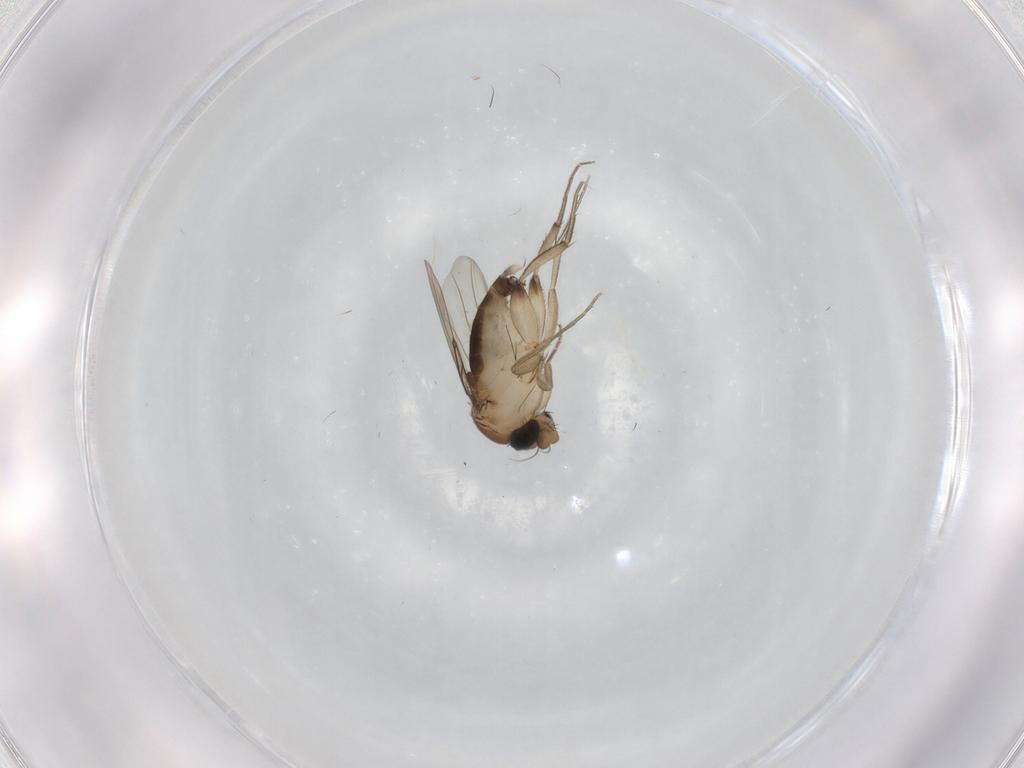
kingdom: Animalia
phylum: Arthropoda
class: Insecta
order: Diptera
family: Phoridae
